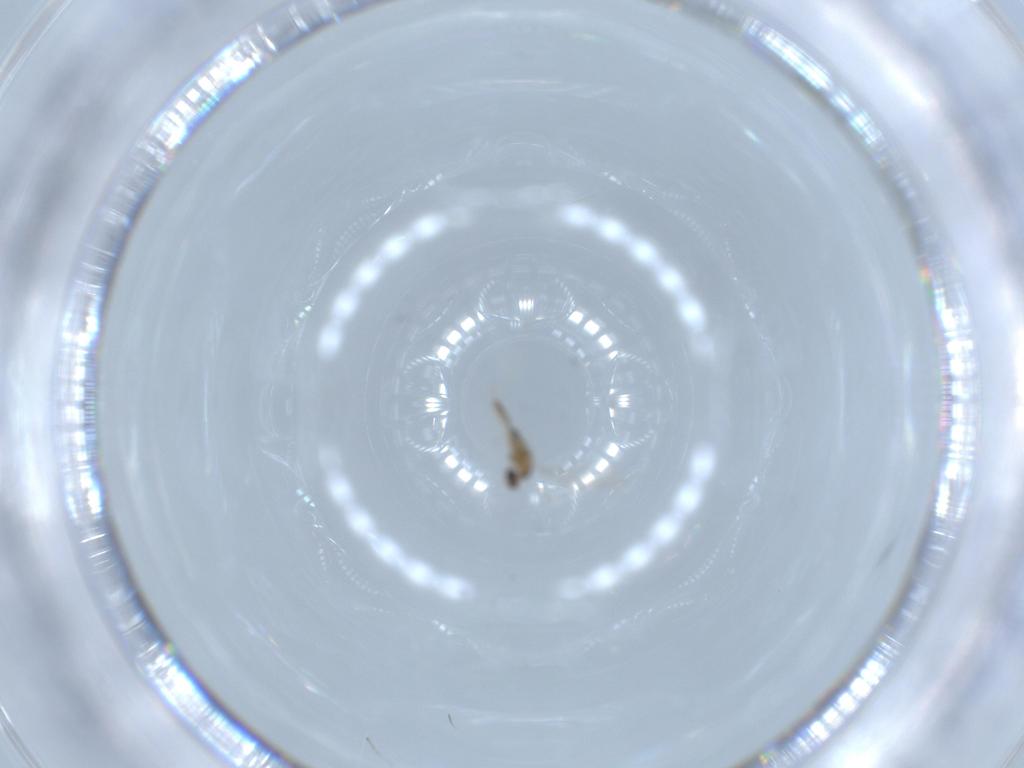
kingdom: Animalia
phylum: Arthropoda
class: Insecta
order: Diptera
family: Cecidomyiidae
